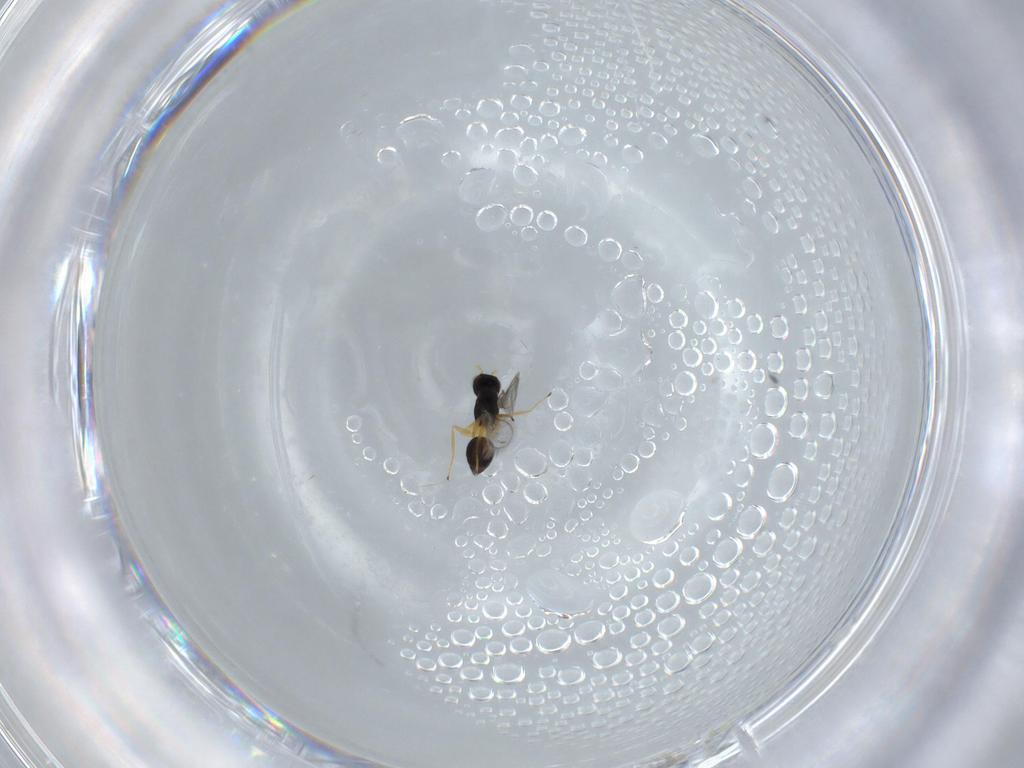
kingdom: Animalia
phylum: Arthropoda
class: Insecta
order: Hymenoptera
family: Mymaridae
